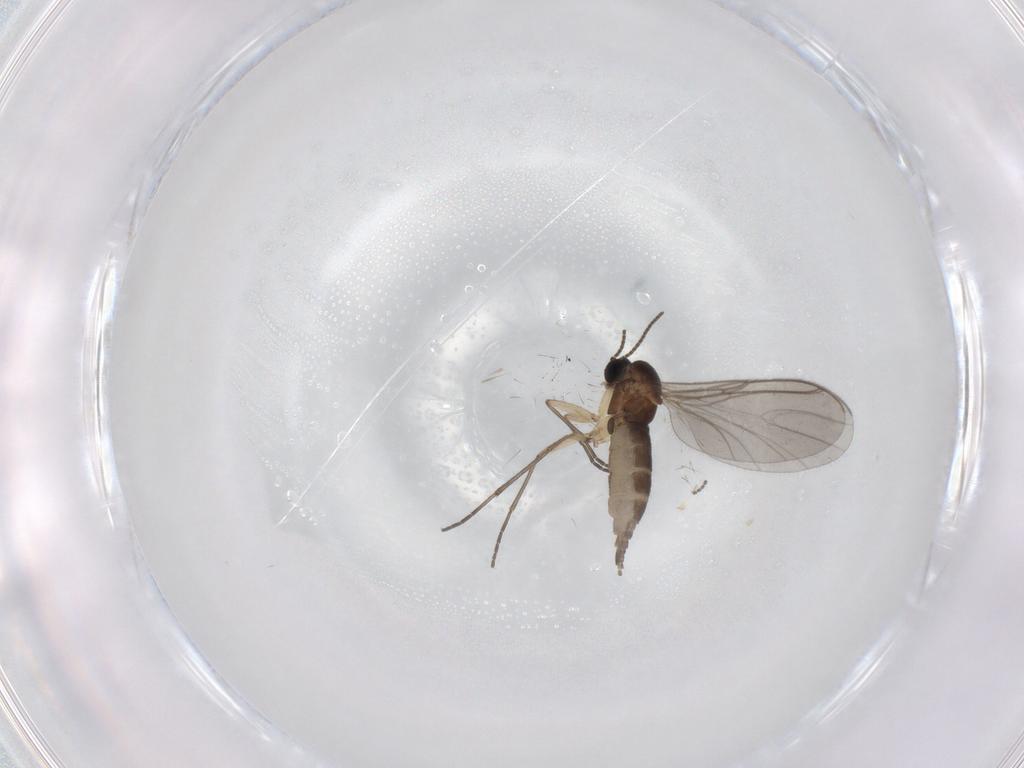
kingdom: Animalia
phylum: Arthropoda
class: Insecta
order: Diptera
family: Sciaridae
